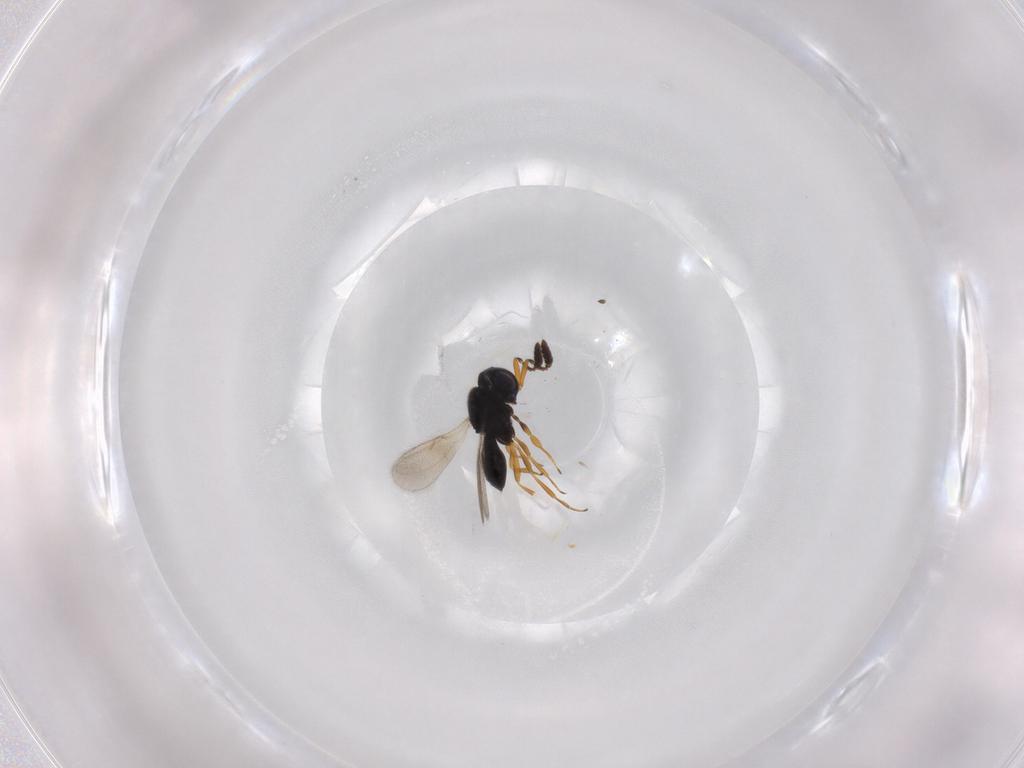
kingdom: Animalia
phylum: Arthropoda
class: Insecta
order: Hymenoptera
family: Scelionidae
